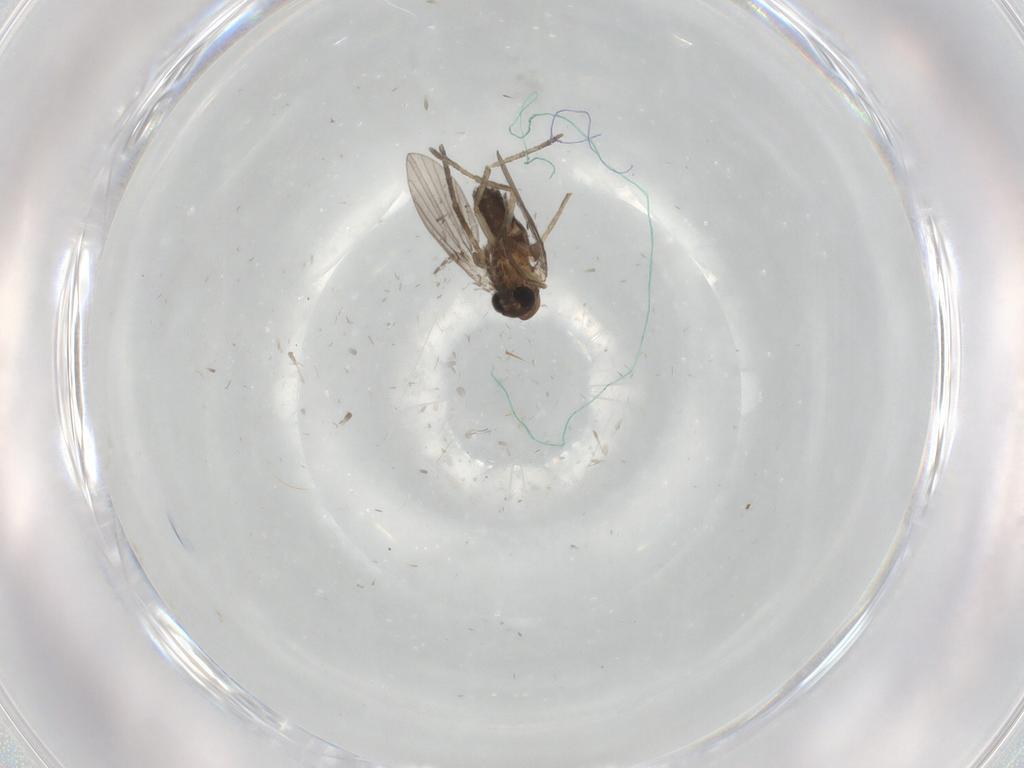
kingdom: Animalia
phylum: Arthropoda
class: Insecta
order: Diptera
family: Psychodidae
